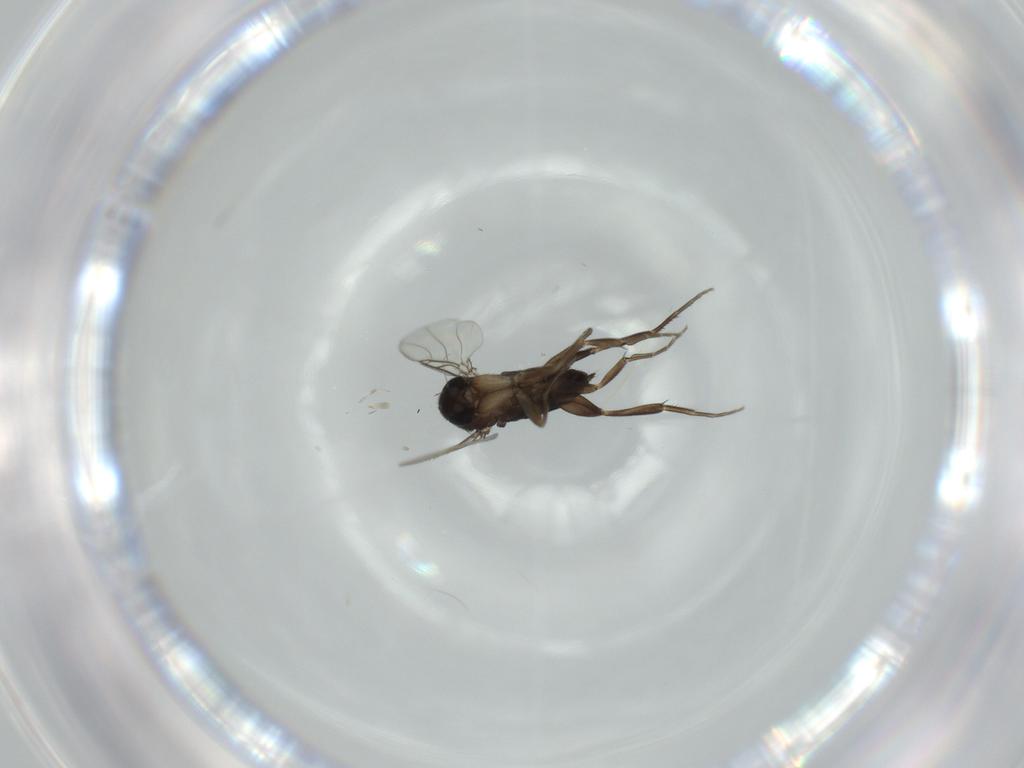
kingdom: Animalia
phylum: Arthropoda
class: Insecta
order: Diptera
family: Phoridae
